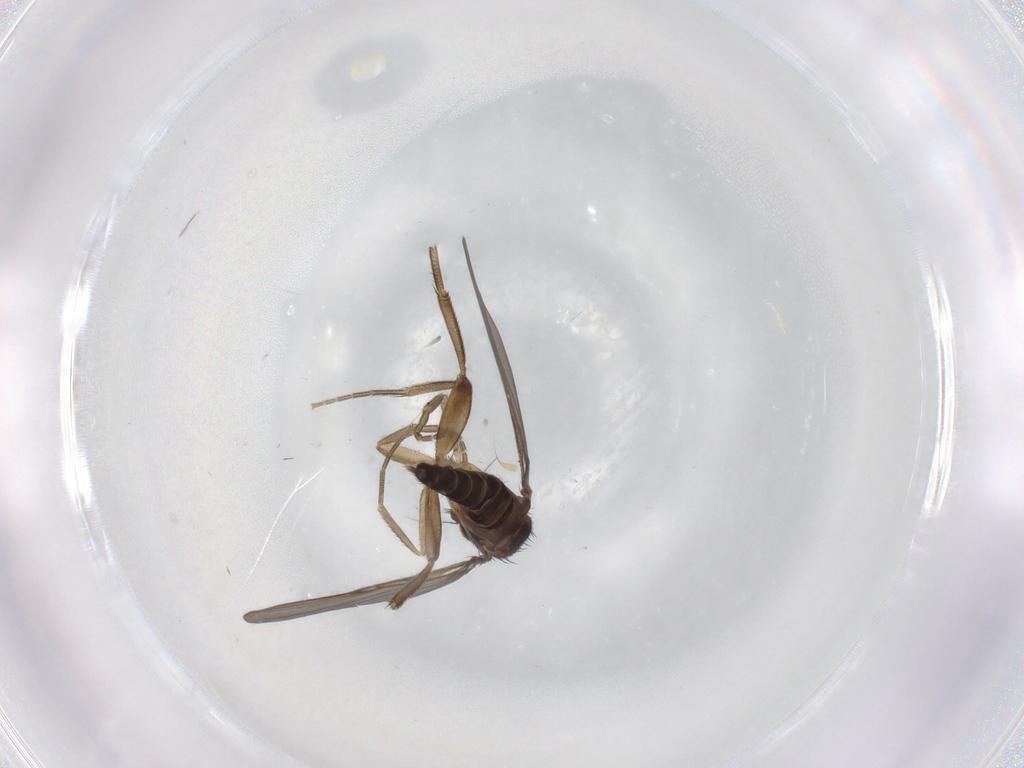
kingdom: Animalia
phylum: Arthropoda
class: Insecta
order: Diptera
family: Phoridae
